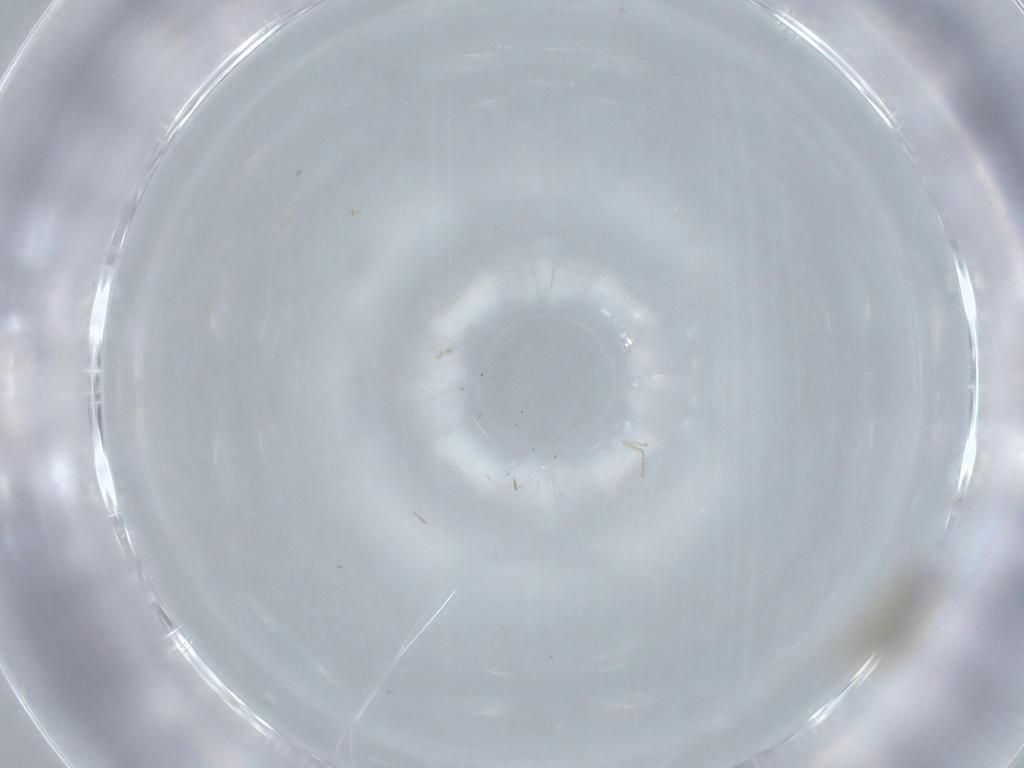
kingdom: Animalia
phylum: Arthropoda
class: Insecta
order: Diptera
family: Cecidomyiidae
